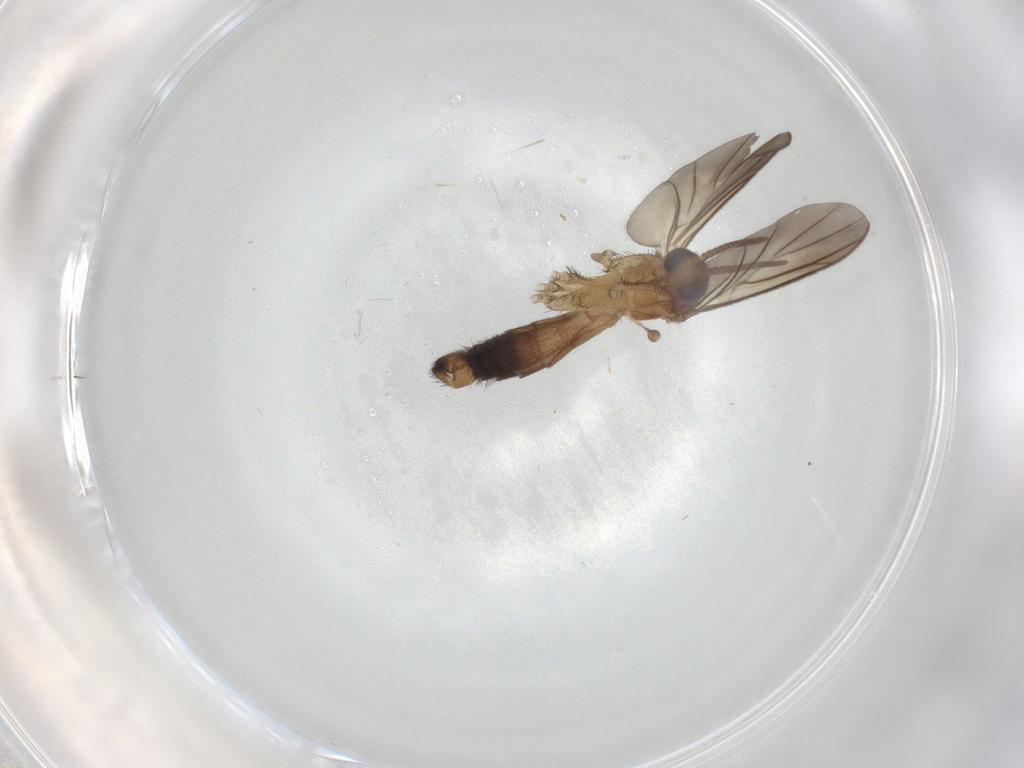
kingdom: Animalia
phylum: Arthropoda
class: Insecta
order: Diptera
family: Keroplatidae
